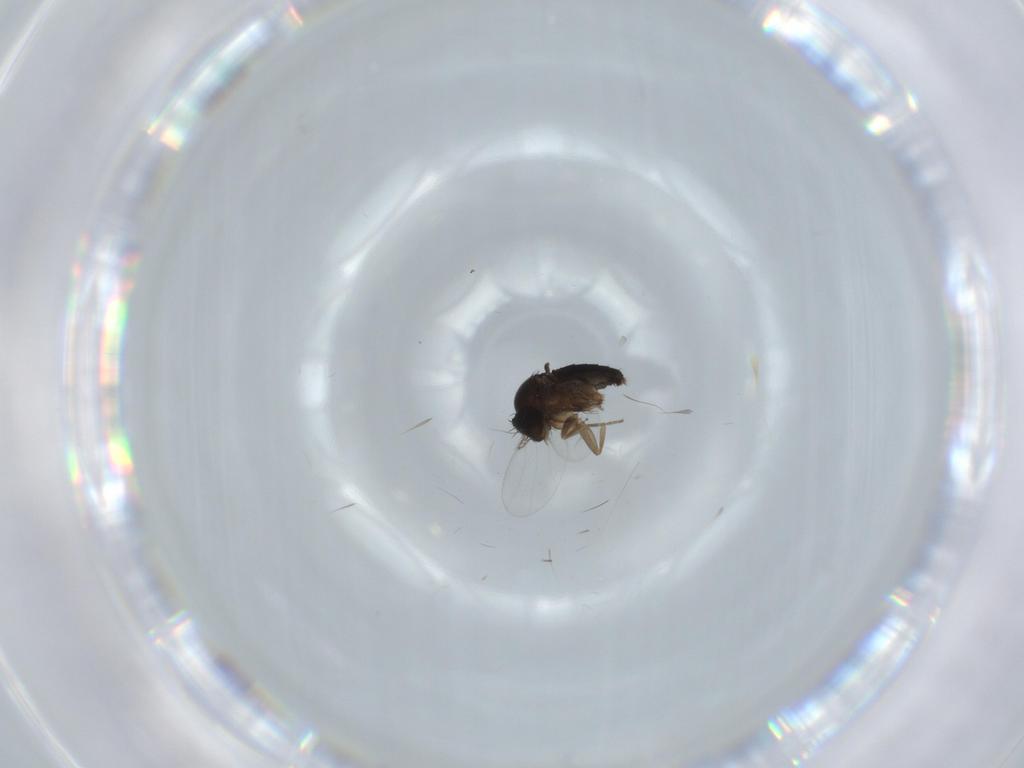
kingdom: Animalia
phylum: Arthropoda
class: Insecta
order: Diptera
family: Phoridae
